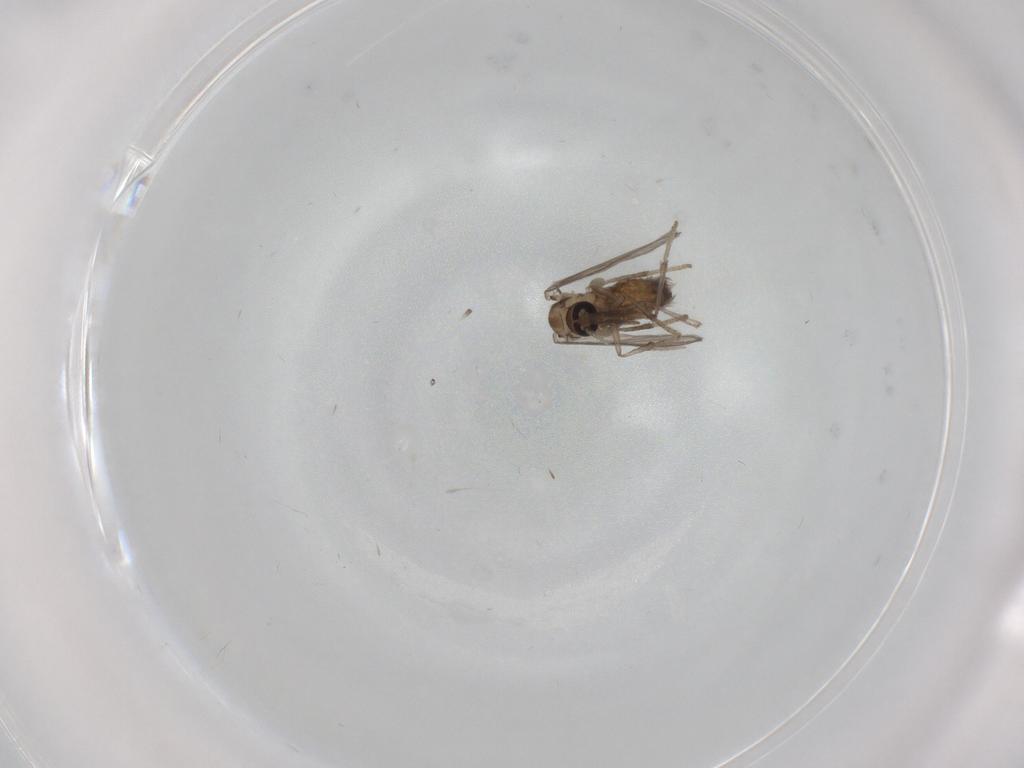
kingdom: Animalia
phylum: Arthropoda
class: Insecta
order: Diptera
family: Psychodidae
